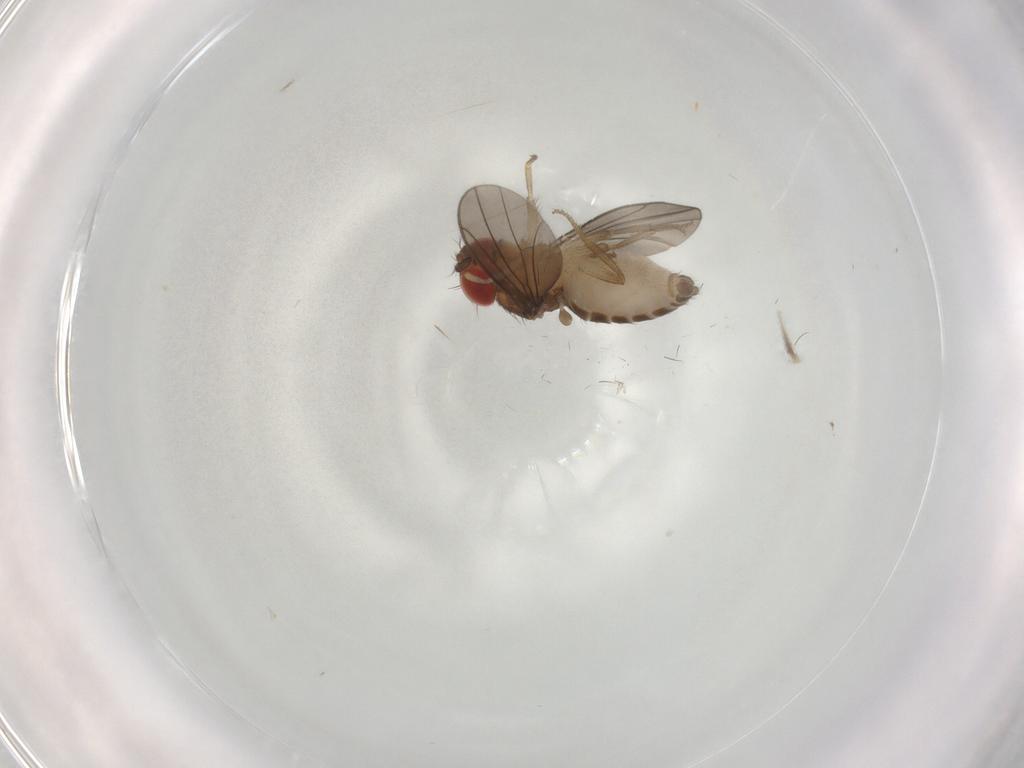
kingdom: Animalia
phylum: Arthropoda
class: Insecta
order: Diptera
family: Drosophilidae
